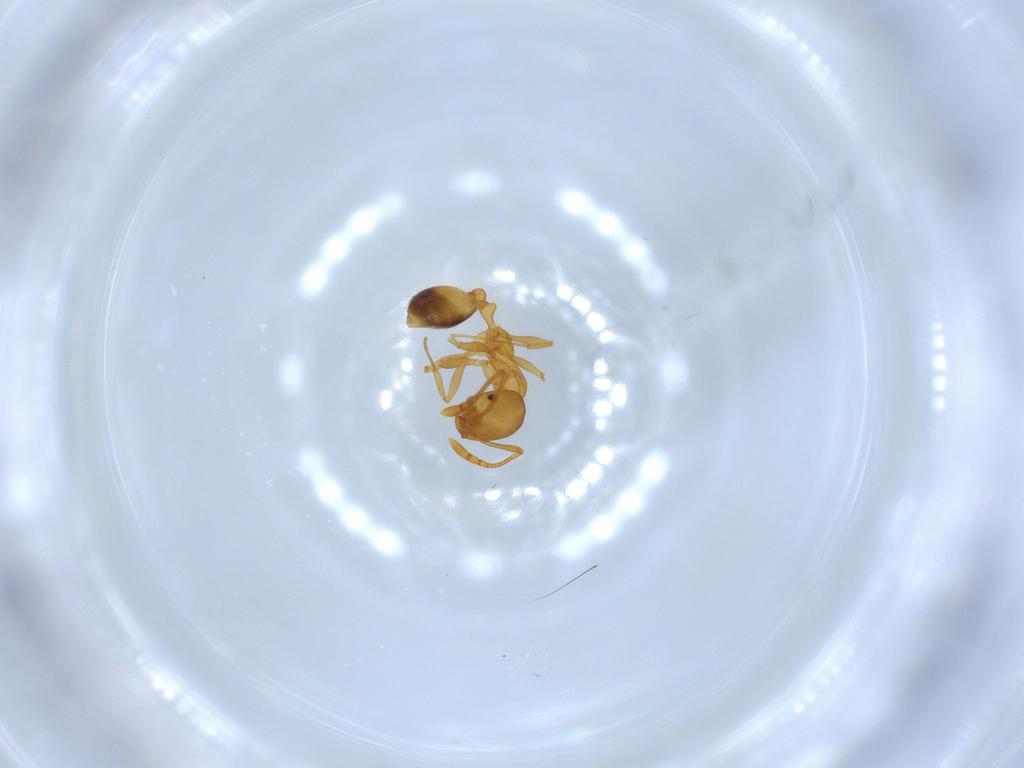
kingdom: Animalia
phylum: Arthropoda
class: Insecta
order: Hymenoptera
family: Formicidae
